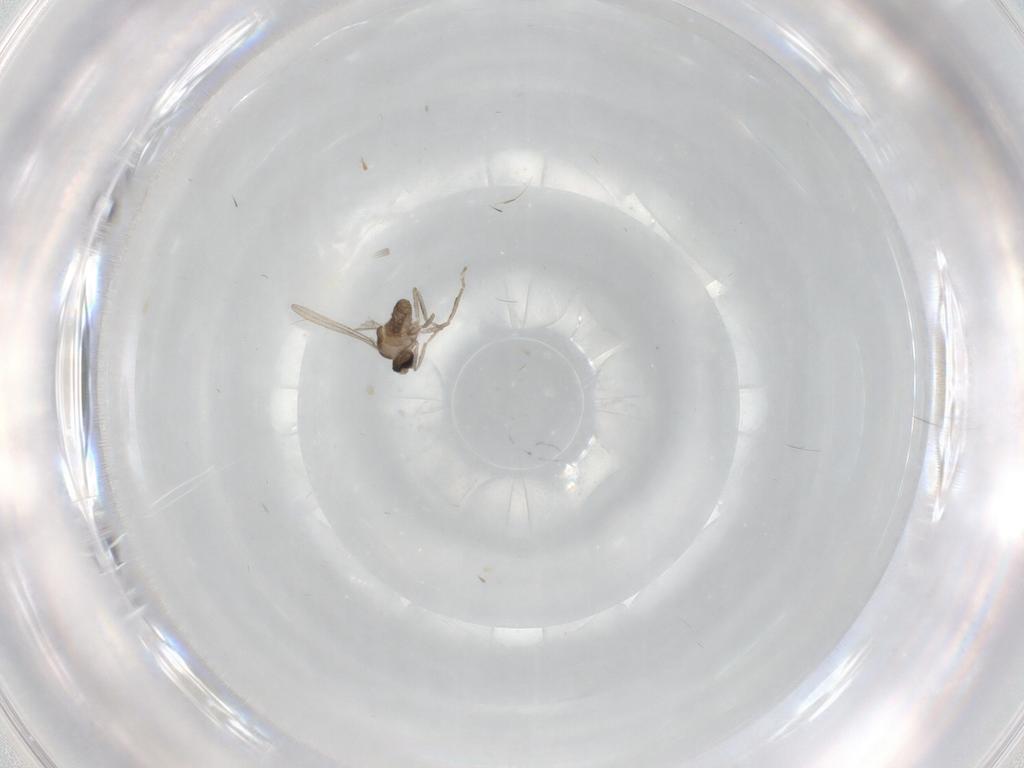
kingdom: Animalia
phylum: Arthropoda
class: Insecta
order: Diptera
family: Cecidomyiidae
